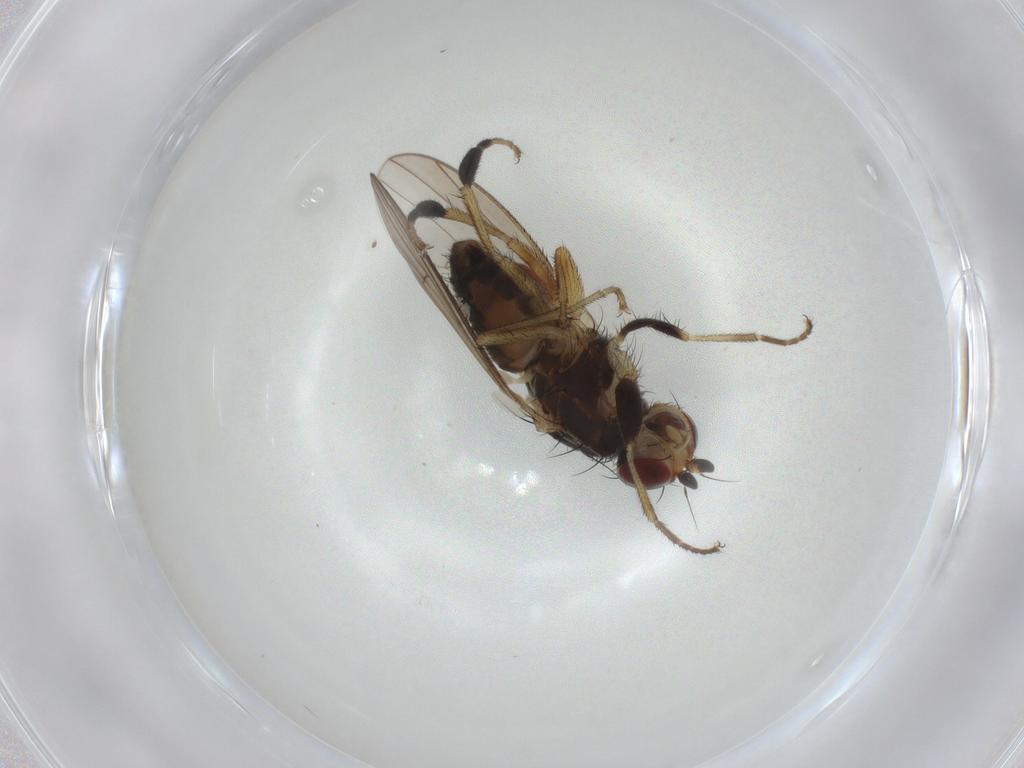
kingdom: Animalia
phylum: Arthropoda
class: Insecta
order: Diptera
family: Heleomyzidae
